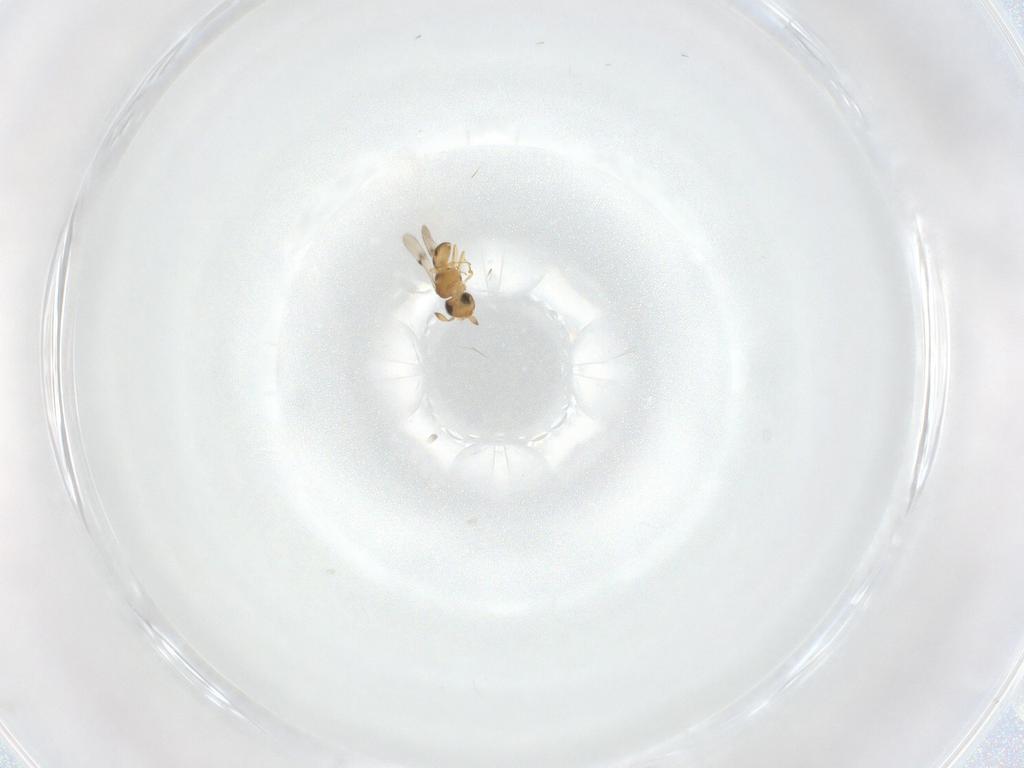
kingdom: Animalia
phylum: Arthropoda
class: Insecta
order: Hymenoptera
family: Scelionidae
